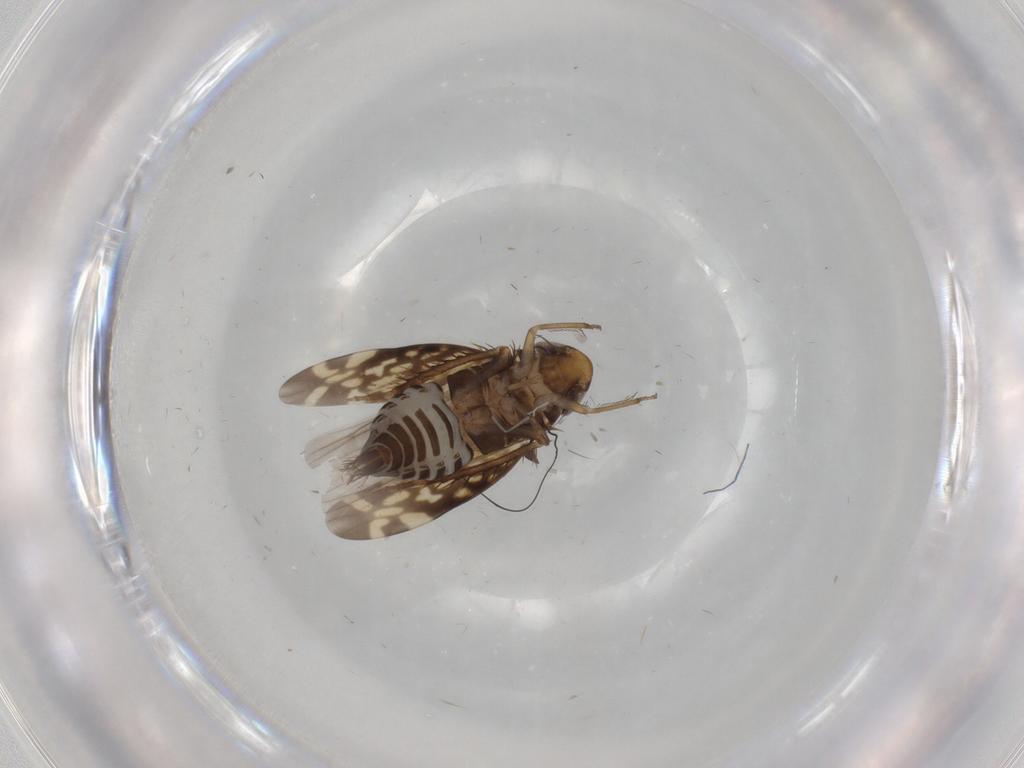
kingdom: Animalia
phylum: Arthropoda
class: Insecta
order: Hemiptera
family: Cicadellidae
